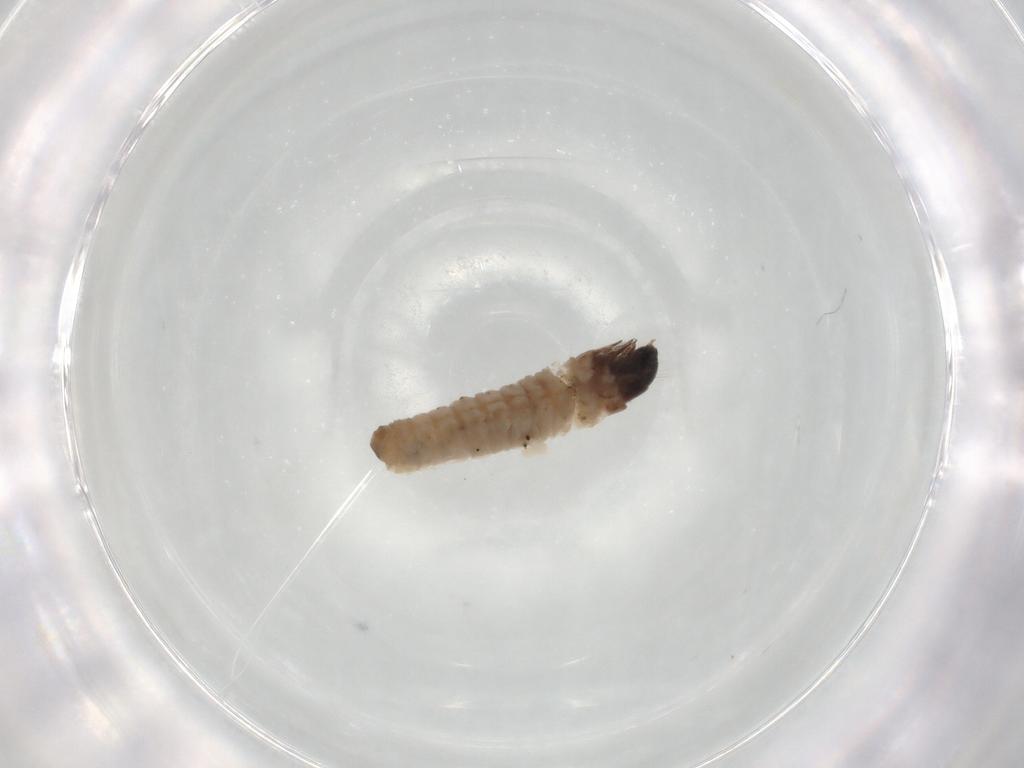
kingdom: Animalia
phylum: Arthropoda
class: Insecta
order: Lepidoptera
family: Psychidae
